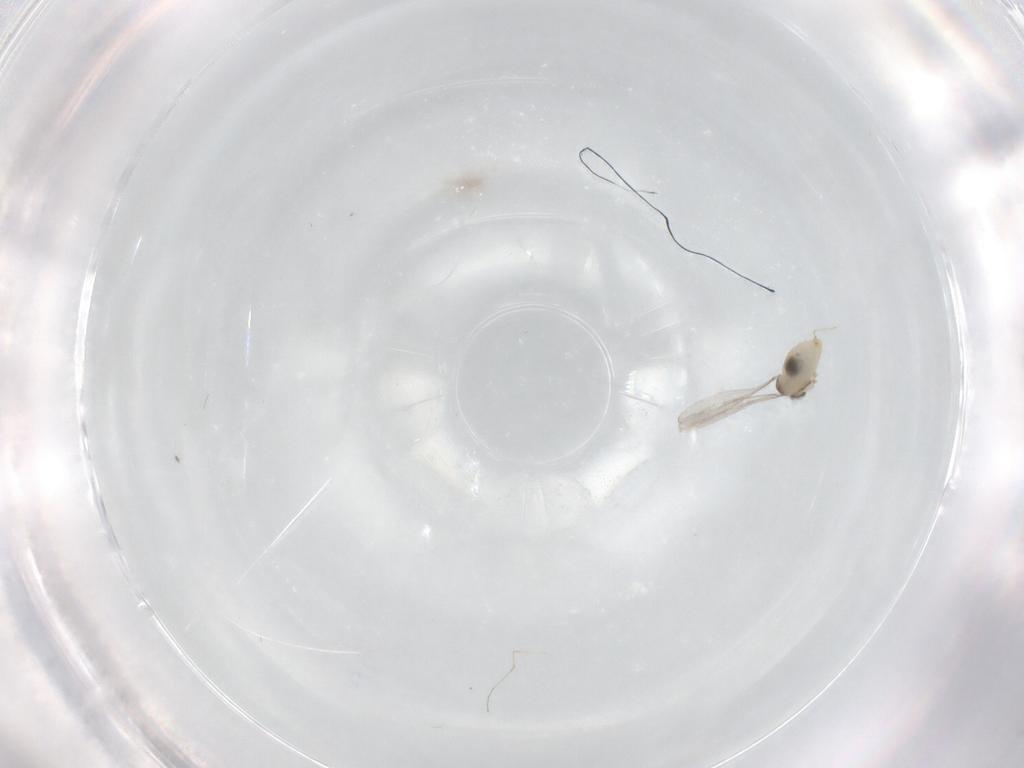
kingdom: Animalia
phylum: Arthropoda
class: Insecta
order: Diptera
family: Cecidomyiidae
